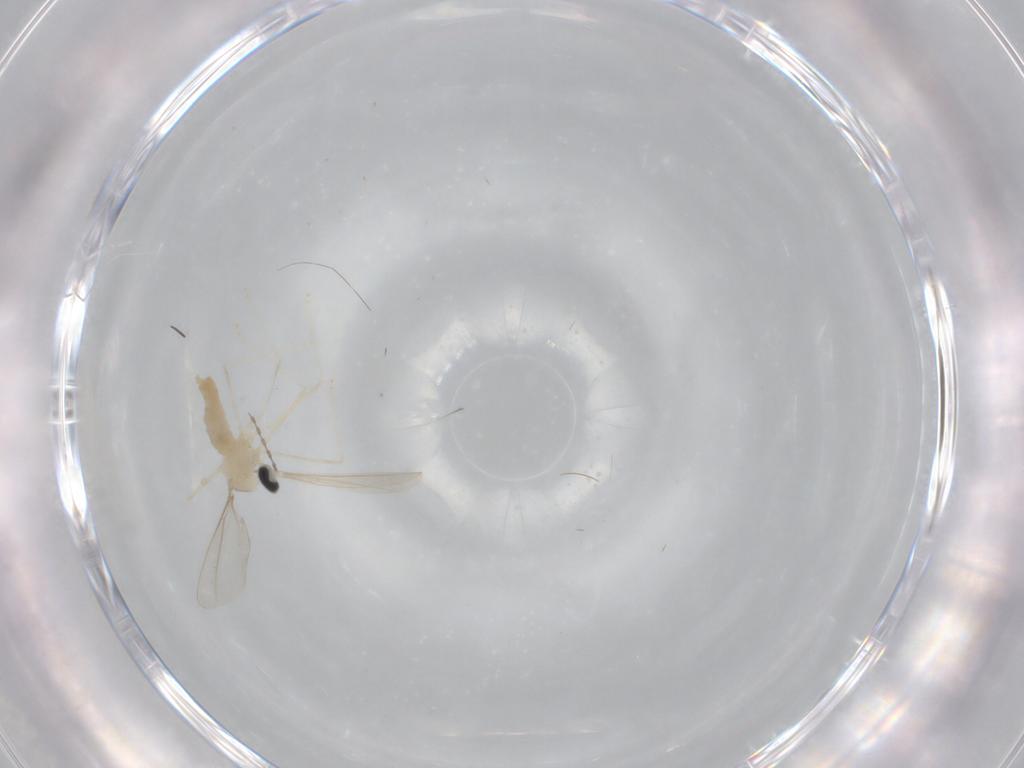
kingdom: Animalia
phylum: Arthropoda
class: Insecta
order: Diptera
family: Cecidomyiidae
